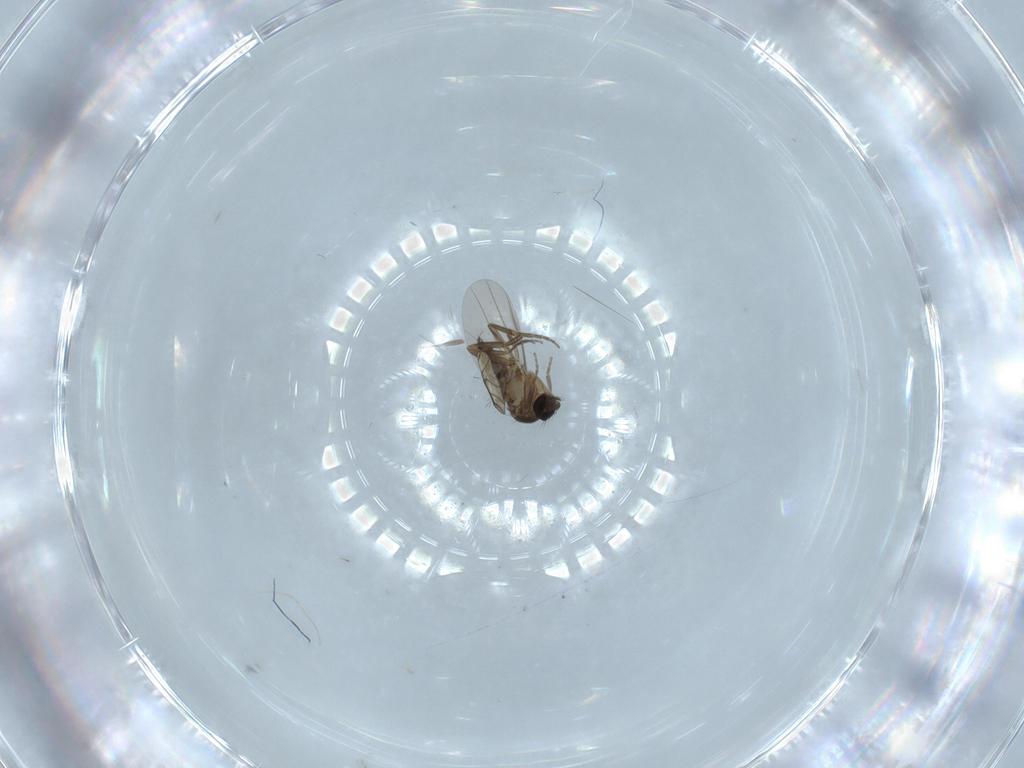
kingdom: Animalia
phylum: Arthropoda
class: Insecta
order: Diptera
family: Phoridae
